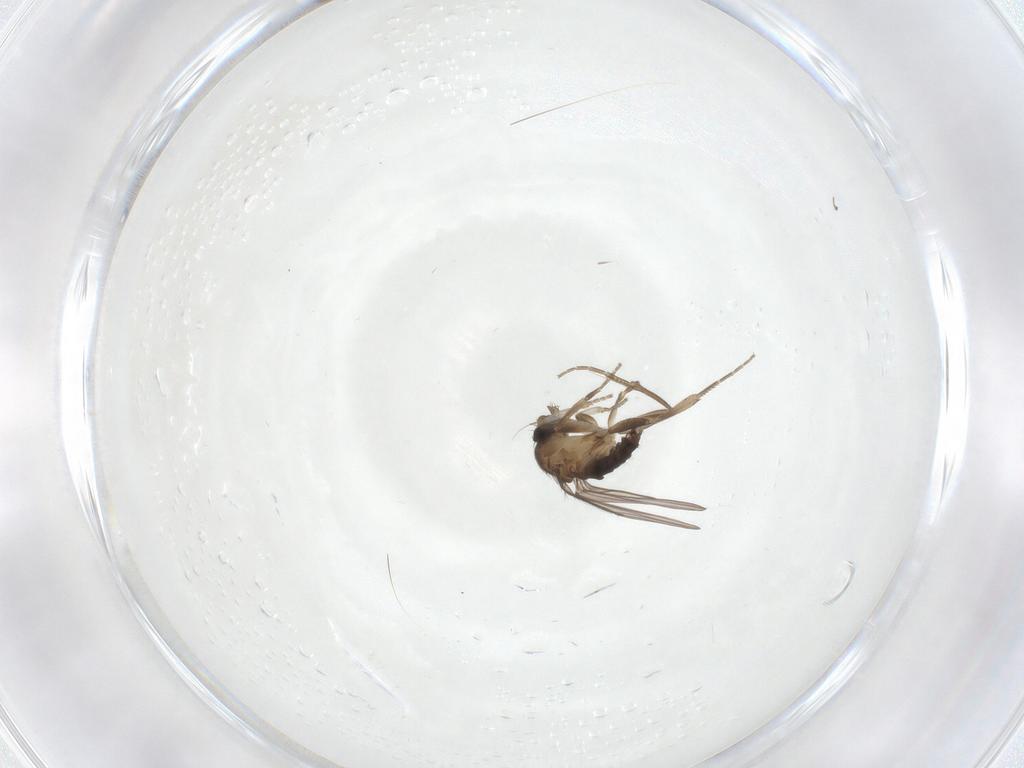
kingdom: Animalia
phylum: Arthropoda
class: Insecta
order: Diptera
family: Phoridae
